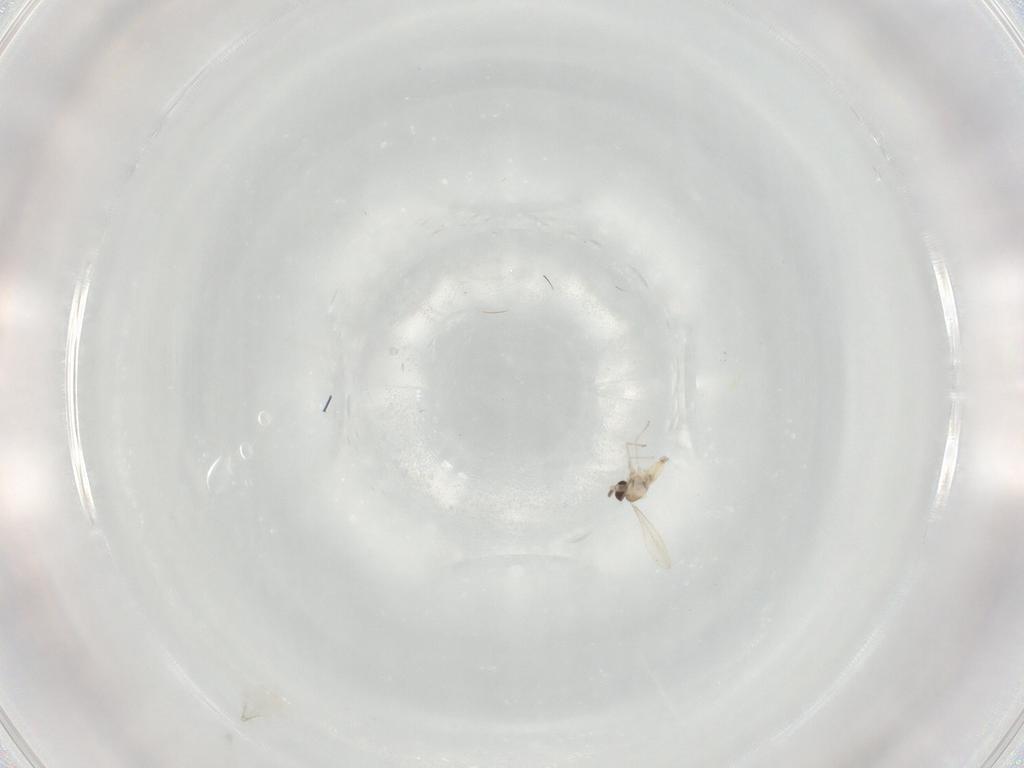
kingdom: Animalia
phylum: Arthropoda
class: Insecta
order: Diptera
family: Cecidomyiidae
